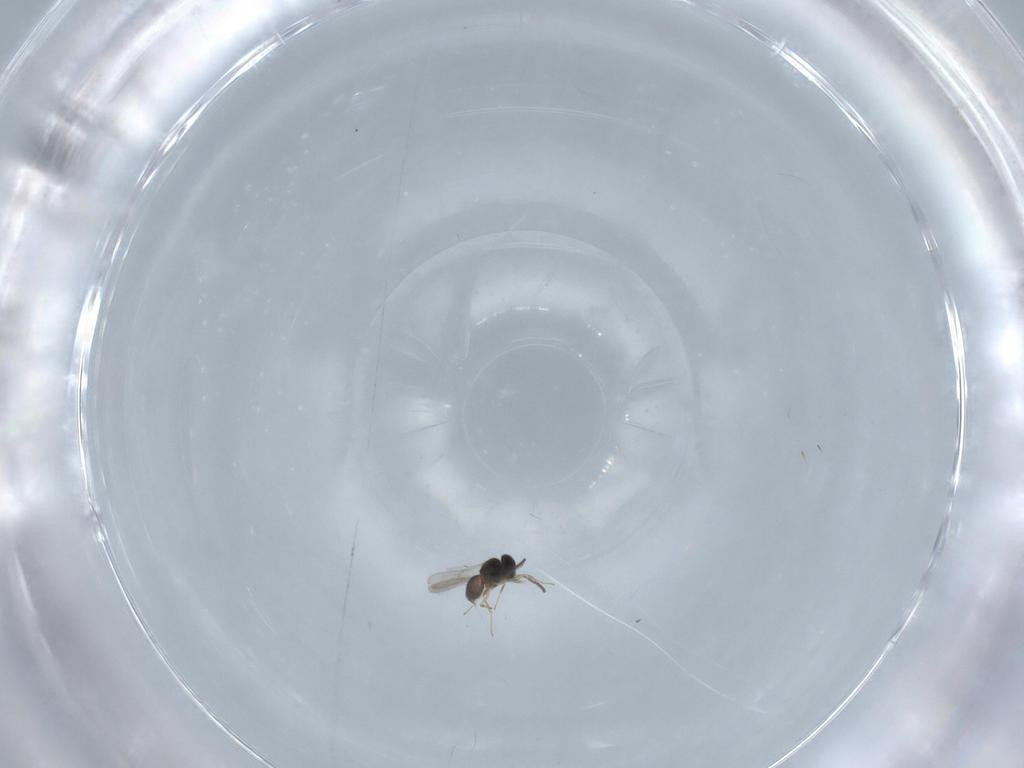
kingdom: Animalia
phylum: Arthropoda
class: Insecta
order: Hymenoptera
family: Scelionidae
